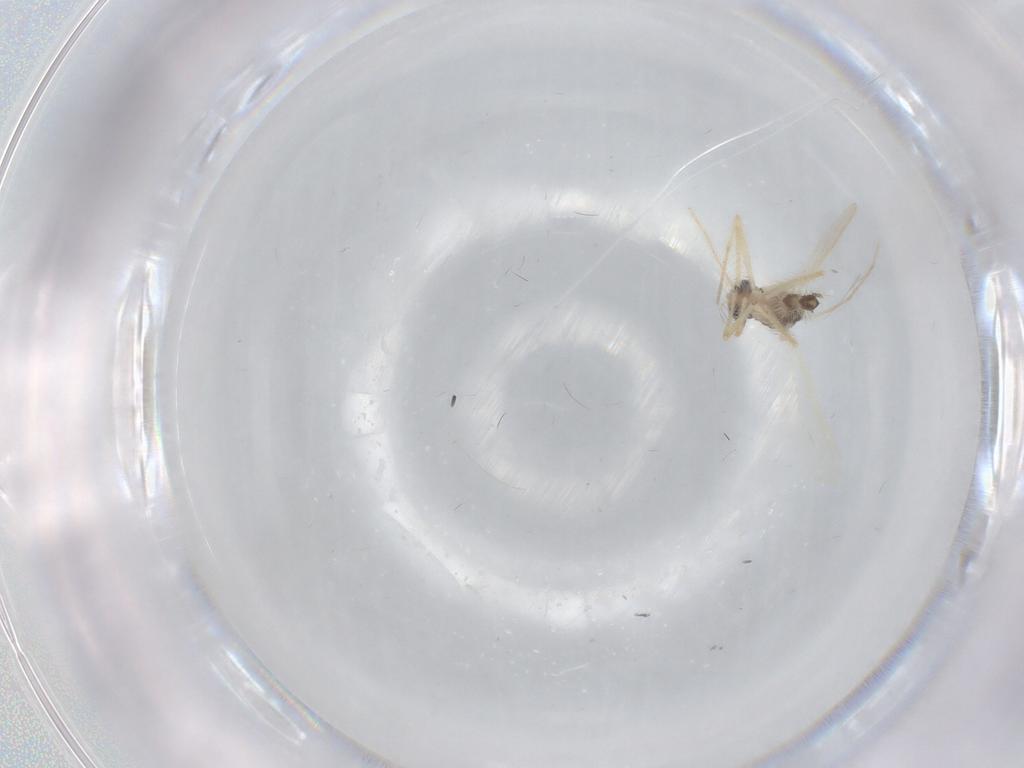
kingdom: Animalia
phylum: Arthropoda
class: Insecta
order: Diptera
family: Chironomidae
